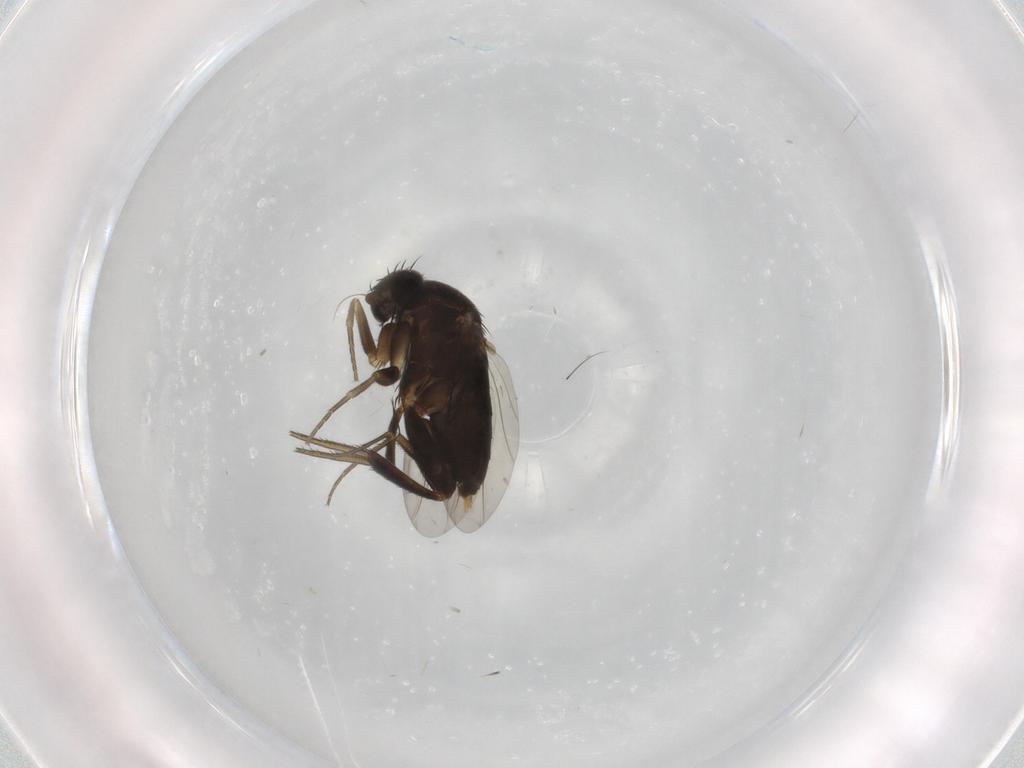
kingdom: Animalia
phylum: Arthropoda
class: Insecta
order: Diptera
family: Phoridae
